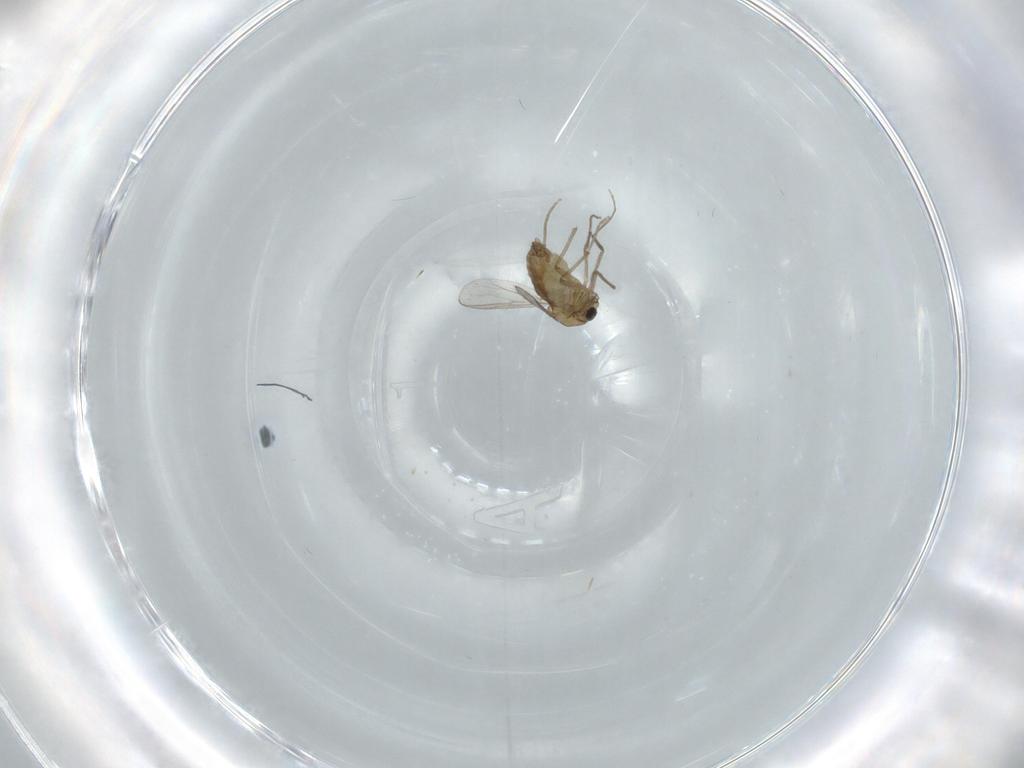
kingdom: Animalia
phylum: Arthropoda
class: Insecta
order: Diptera
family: Chironomidae
